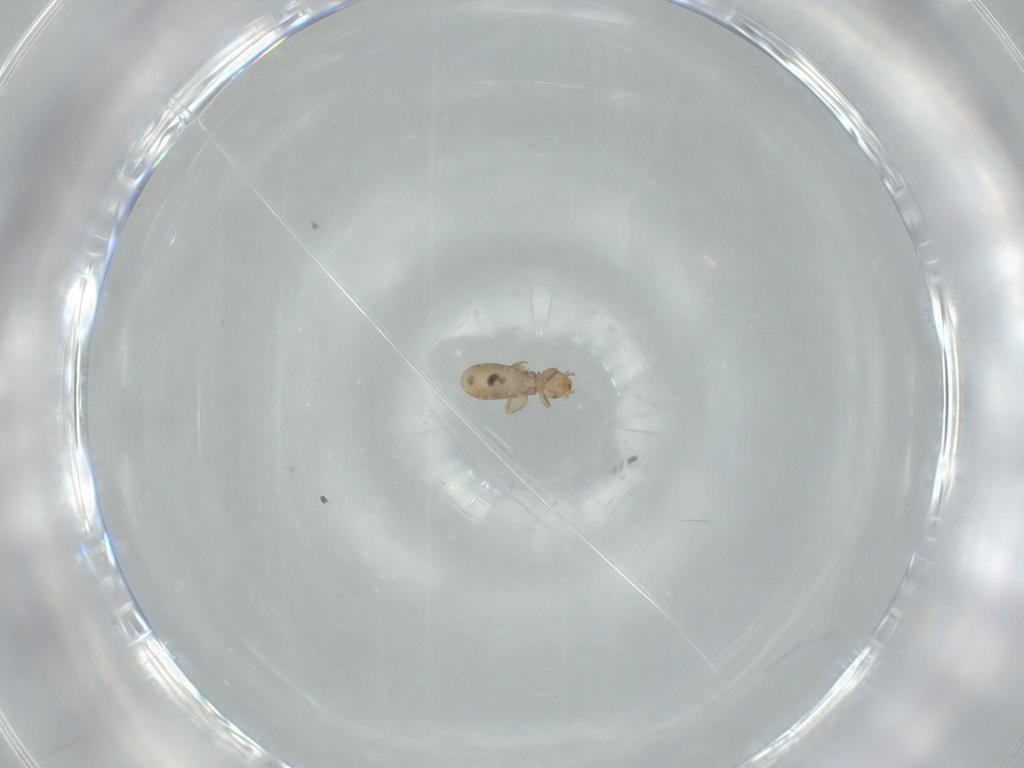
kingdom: Animalia
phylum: Arthropoda
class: Insecta
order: Psocodea
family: Liposcelididae
